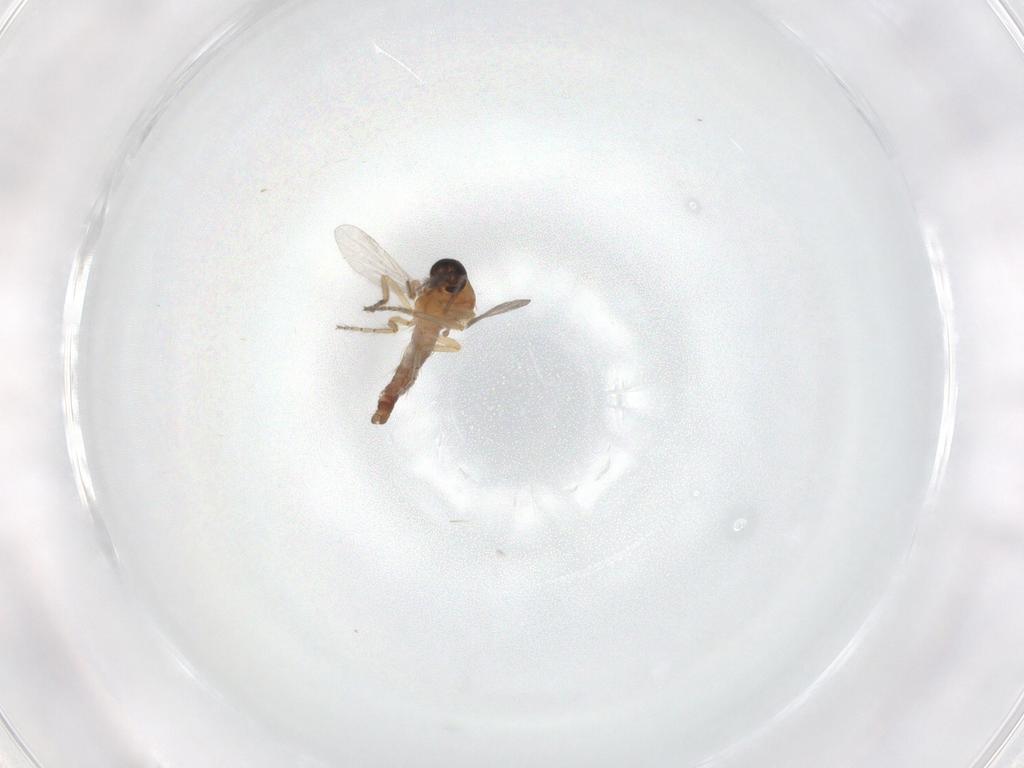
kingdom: Animalia
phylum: Arthropoda
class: Insecta
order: Diptera
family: Ceratopogonidae
